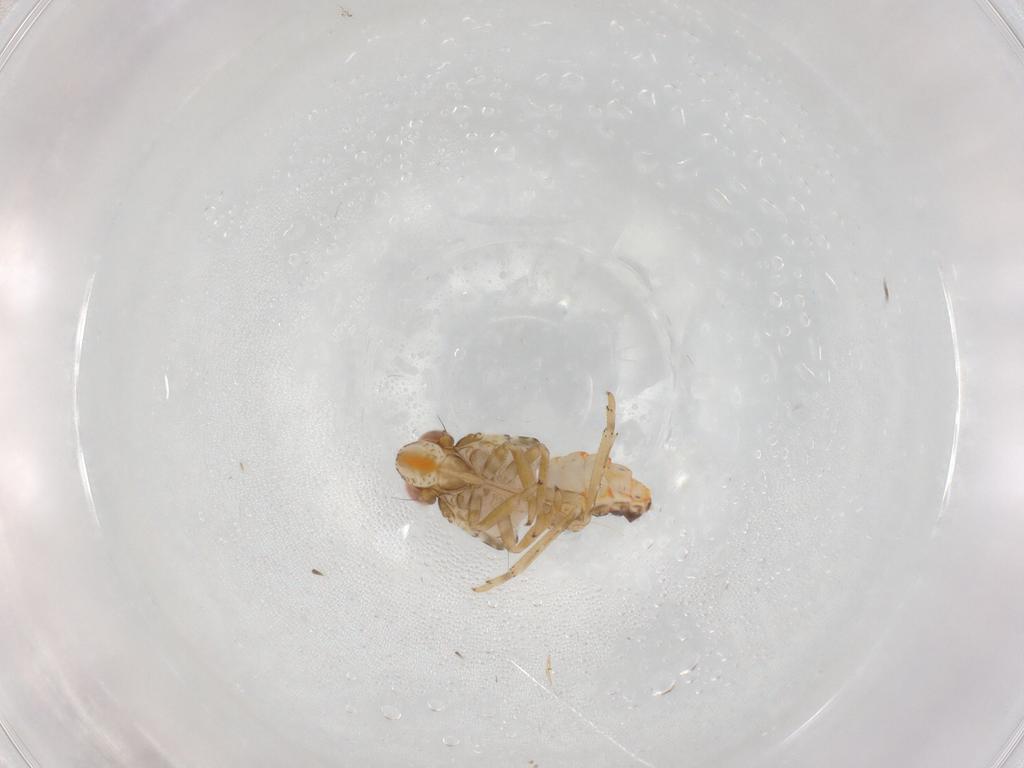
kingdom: Animalia
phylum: Arthropoda
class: Insecta
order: Hemiptera
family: Fulgoroidea_incertae_sedis
